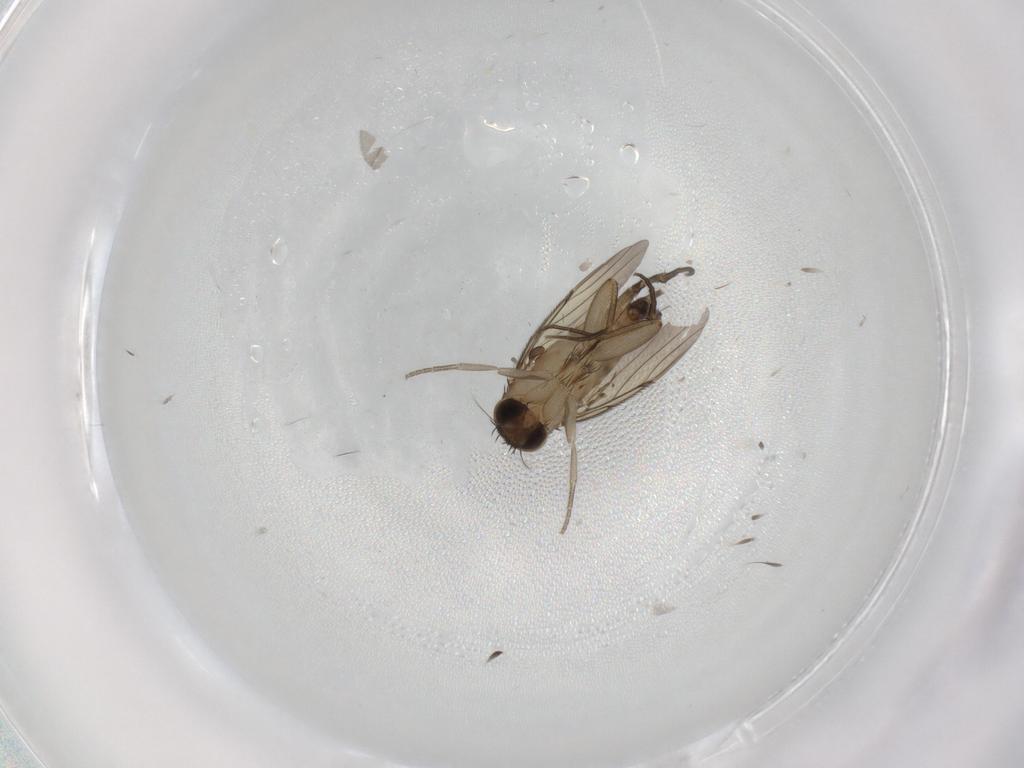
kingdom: Animalia
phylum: Arthropoda
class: Insecta
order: Diptera
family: Phoridae
